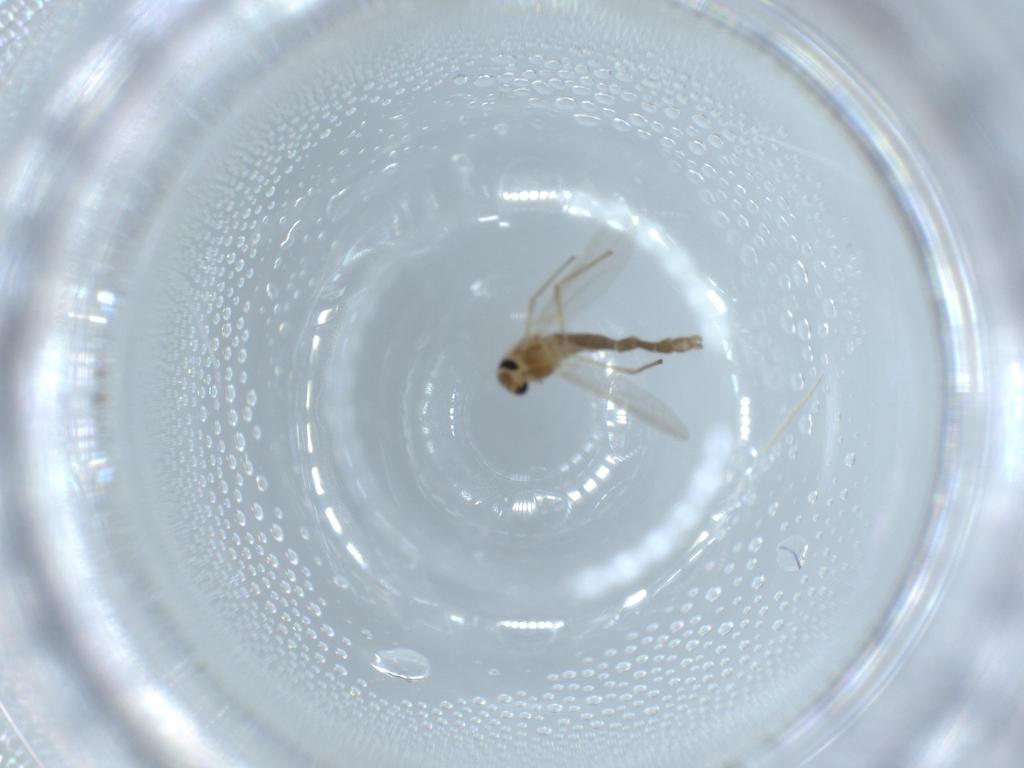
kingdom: Animalia
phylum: Arthropoda
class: Insecta
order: Diptera
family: Chironomidae
